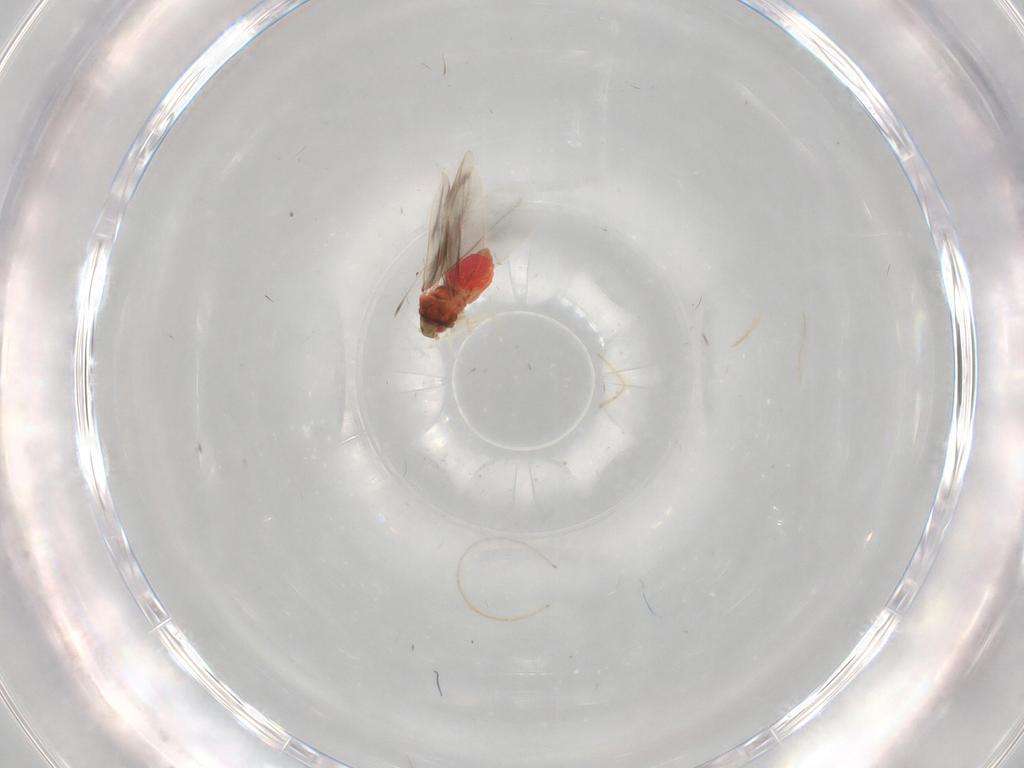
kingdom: Animalia
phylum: Arthropoda
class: Insecta
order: Hemiptera
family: Aleyrodidae
